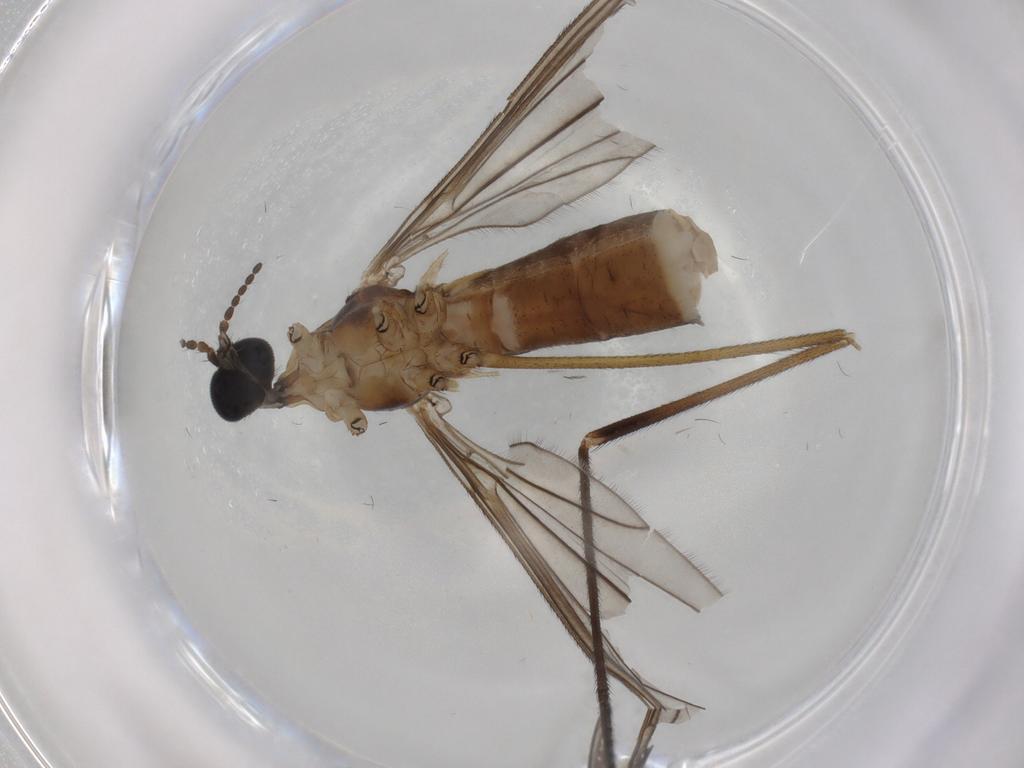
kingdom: Animalia
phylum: Arthropoda
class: Insecta
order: Diptera
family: Limoniidae
